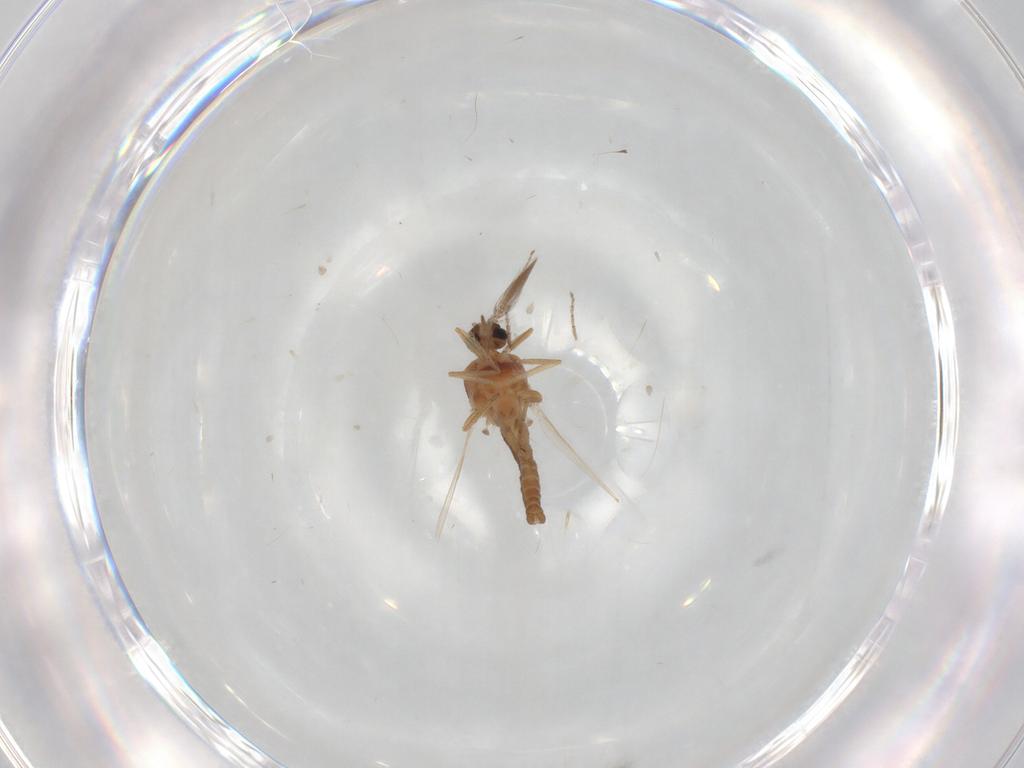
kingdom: Animalia
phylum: Arthropoda
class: Insecta
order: Diptera
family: Ceratopogonidae
